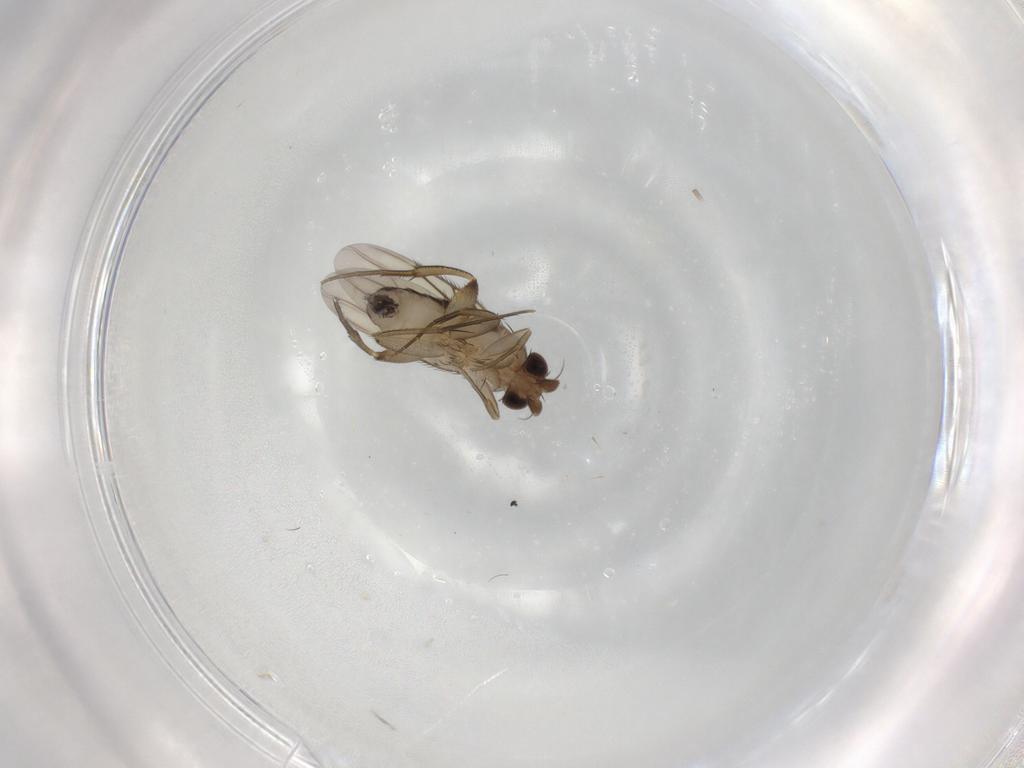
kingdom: Animalia
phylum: Arthropoda
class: Insecta
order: Diptera
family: Phoridae
